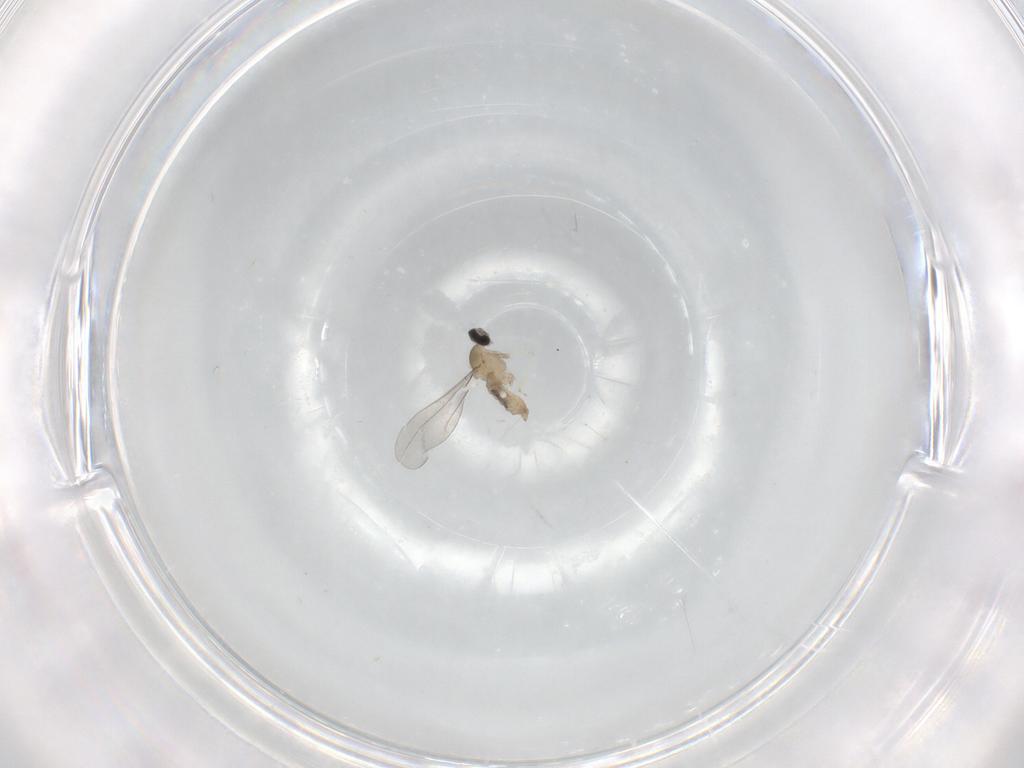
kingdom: Animalia
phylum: Arthropoda
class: Insecta
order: Diptera
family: Cecidomyiidae
